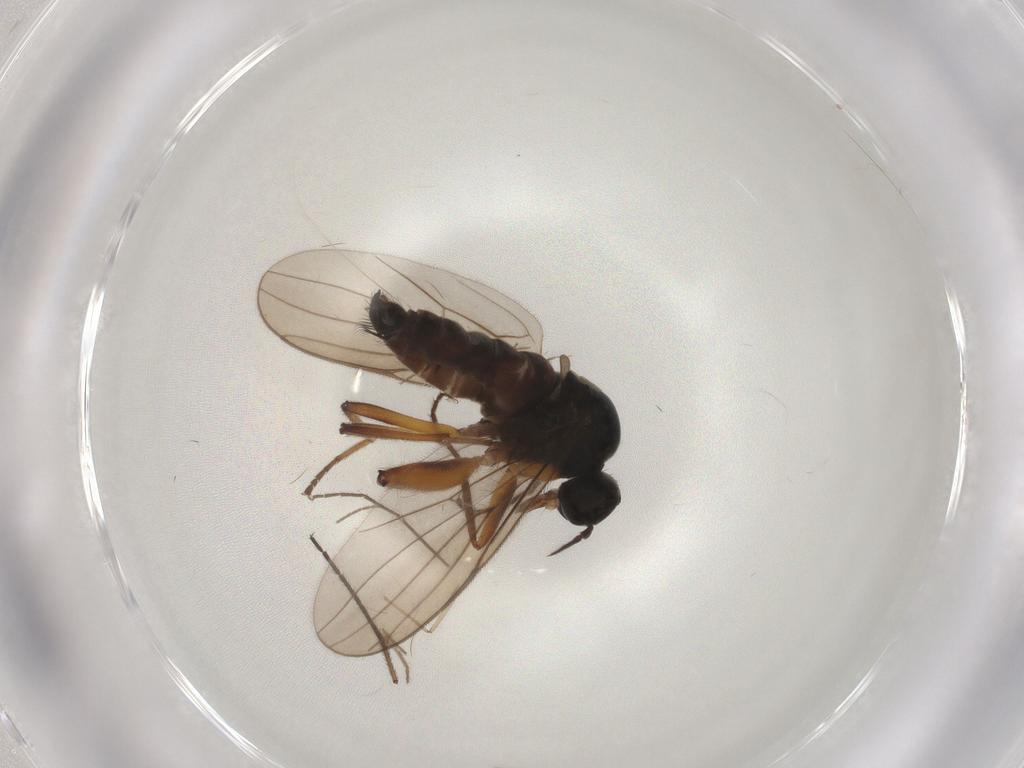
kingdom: Animalia
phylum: Arthropoda
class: Insecta
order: Diptera
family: Hybotidae
